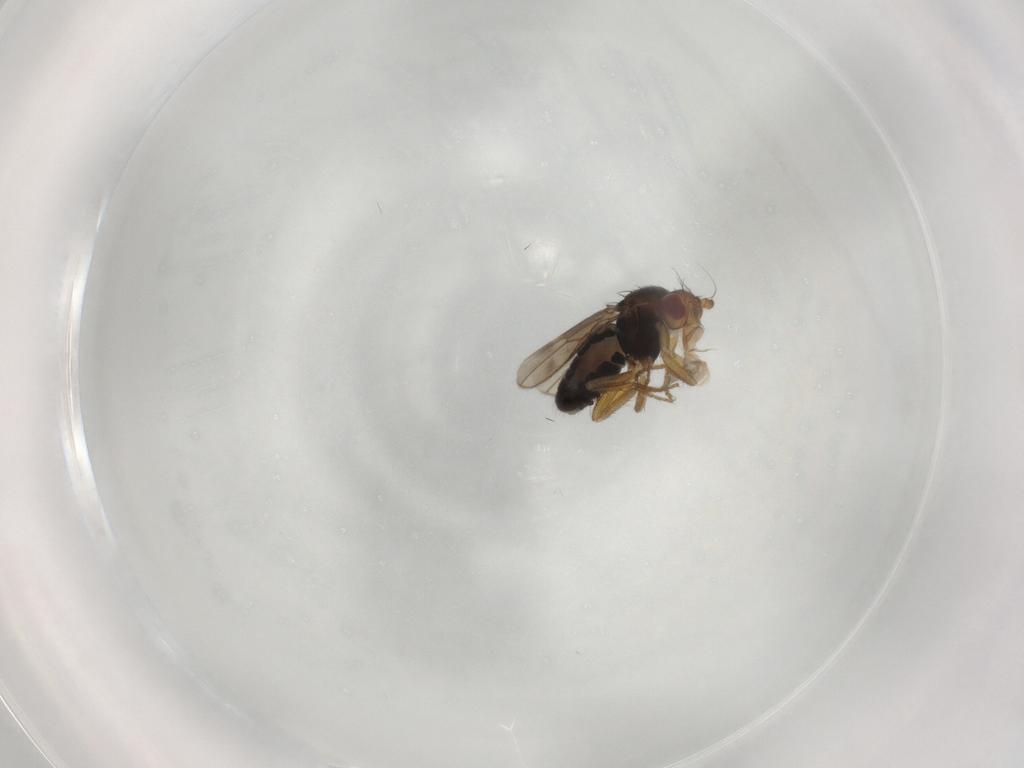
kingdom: Animalia
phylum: Arthropoda
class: Insecta
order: Diptera
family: Sphaeroceridae
